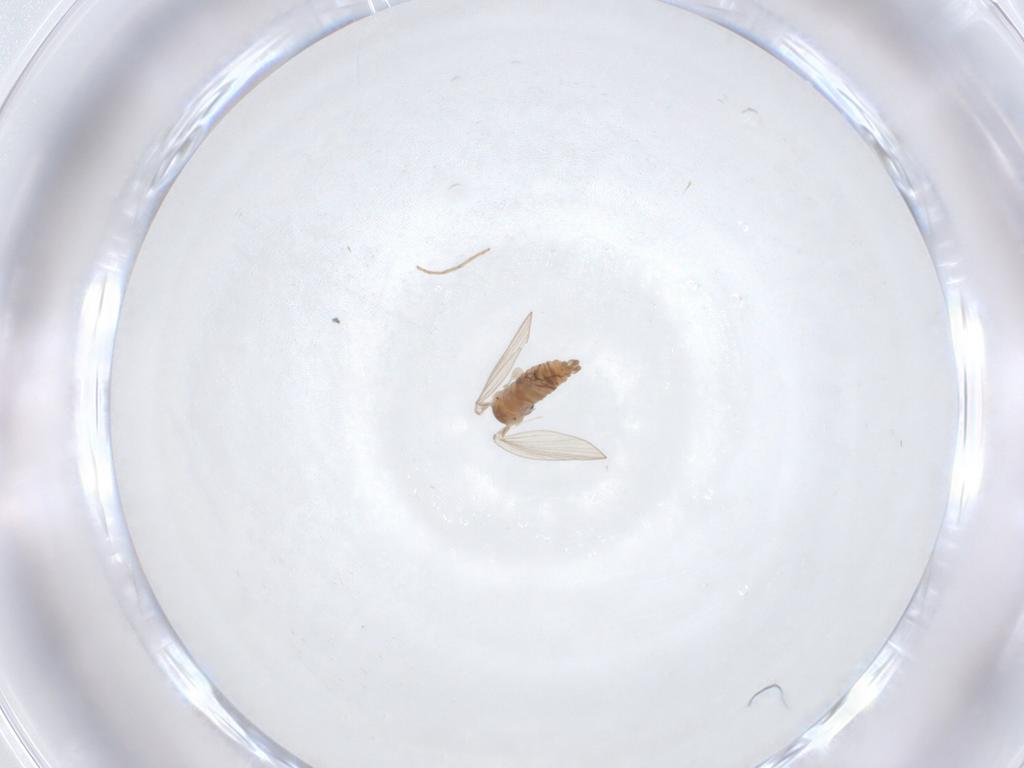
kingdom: Animalia
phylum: Arthropoda
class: Insecta
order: Diptera
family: Psychodidae
